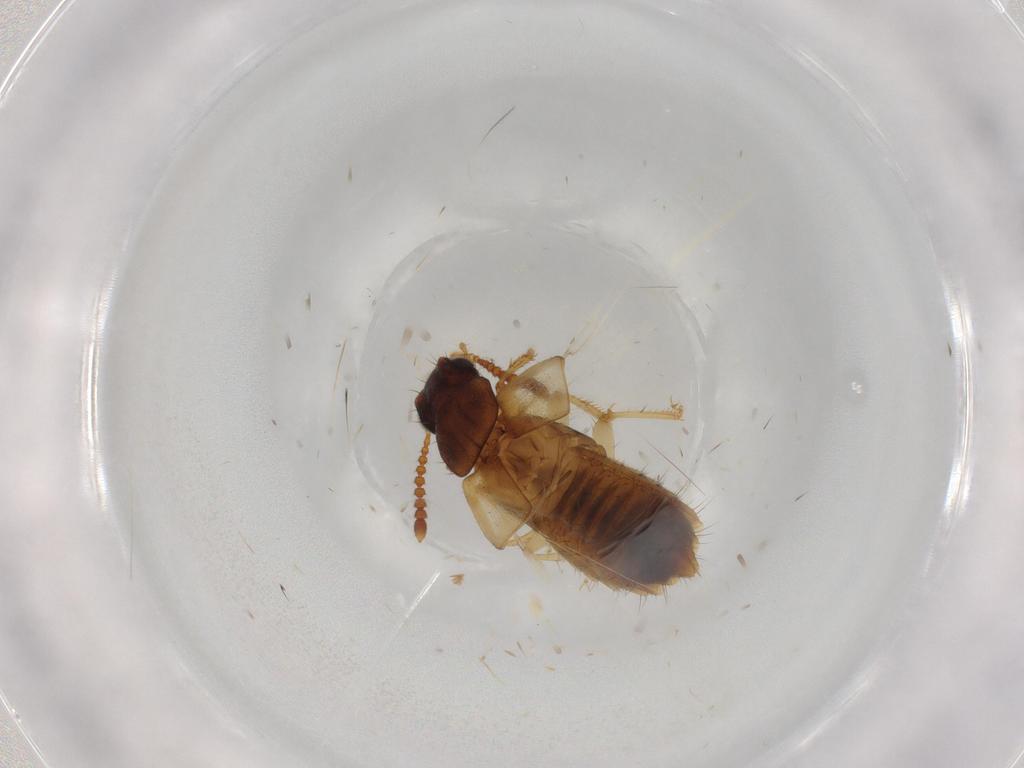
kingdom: Animalia
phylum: Arthropoda
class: Insecta
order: Coleoptera
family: Staphylinidae
